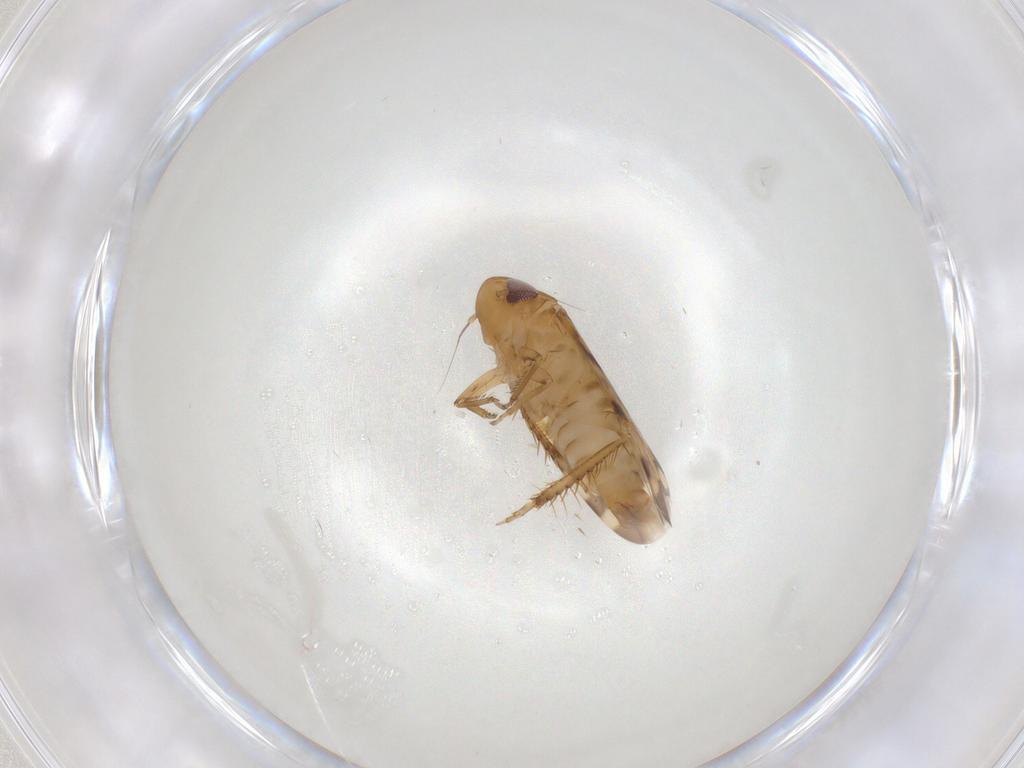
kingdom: Animalia
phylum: Arthropoda
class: Insecta
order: Hemiptera
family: Cicadellidae
